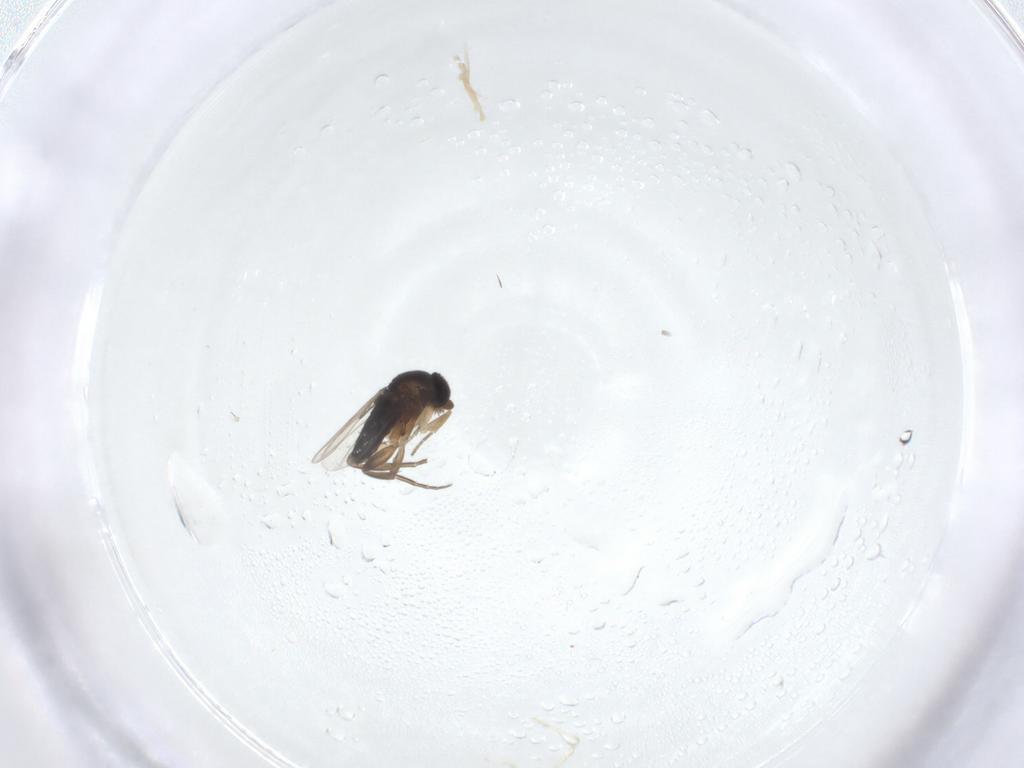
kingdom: Animalia
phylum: Arthropoda
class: Insecta
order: Diptera
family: Phoridae
